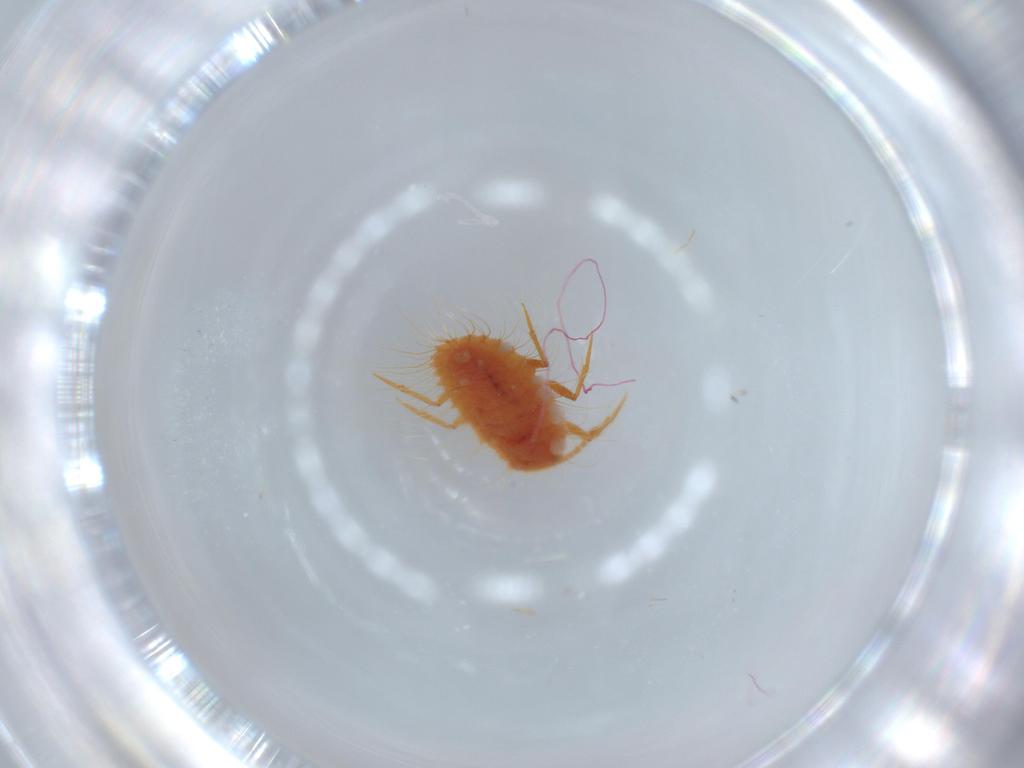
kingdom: Animalia
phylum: Arthropoda
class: Insecta
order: Hemiptera
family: Coccoidea_incertae_sedis
